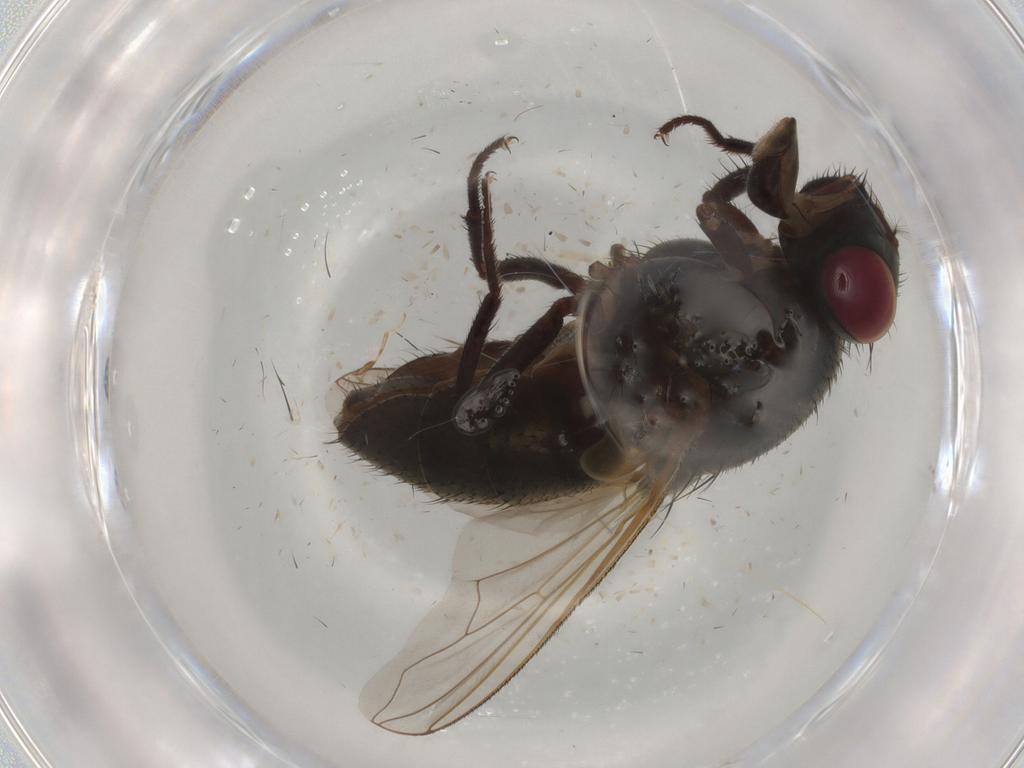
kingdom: Animalia
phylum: Arthropoda
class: Insecta
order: Diptera
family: Muscidae
